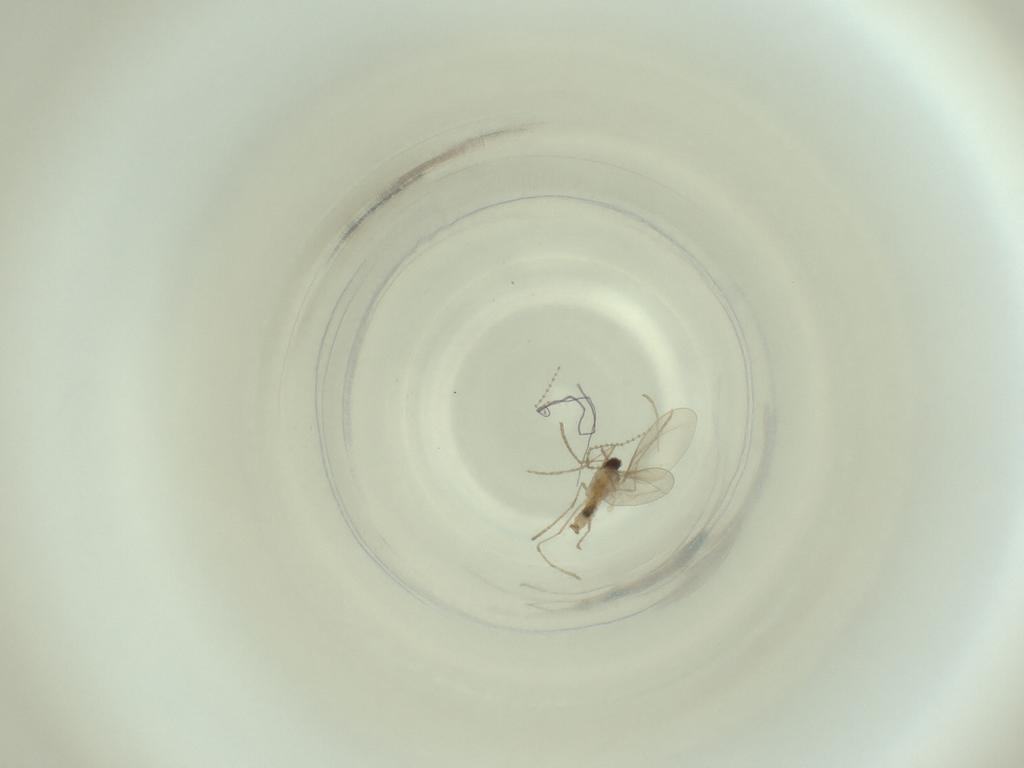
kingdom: Animalia
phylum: Arthropoda
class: Insecta
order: Diptera
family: Cecidomyiidae
